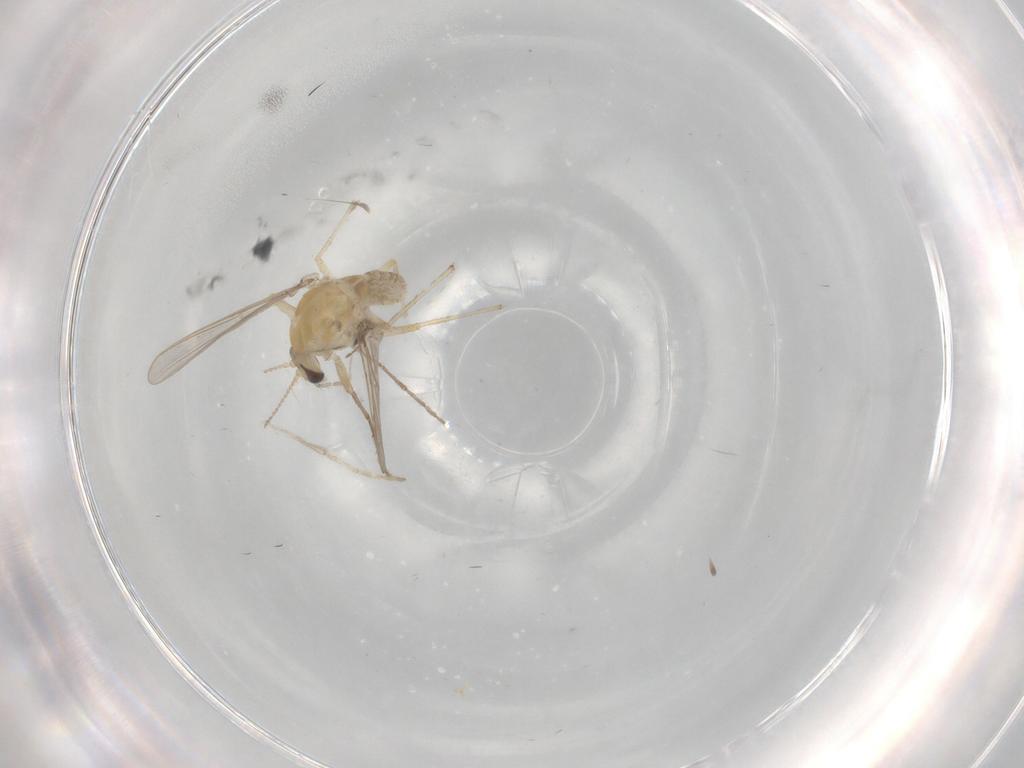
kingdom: Animalia
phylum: Arthropoda
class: Insecta
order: Diptera
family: Chironomidae
